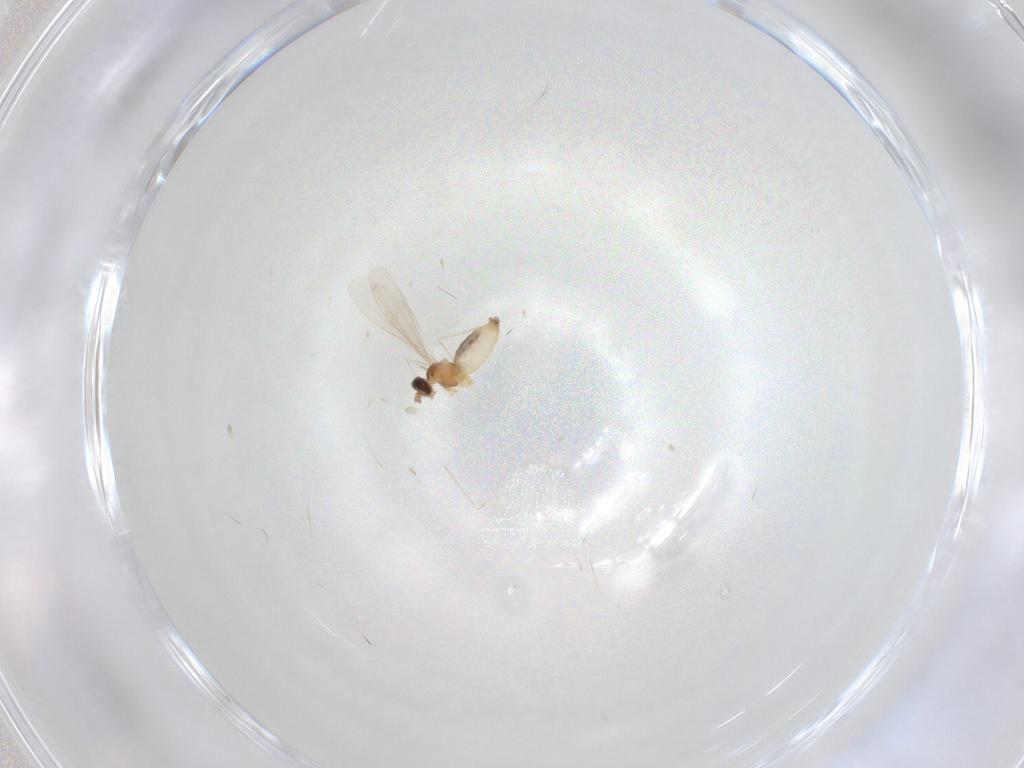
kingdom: Animalia
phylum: Arthropoda
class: Insecta
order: Diptera
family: Cecidomyiidae
